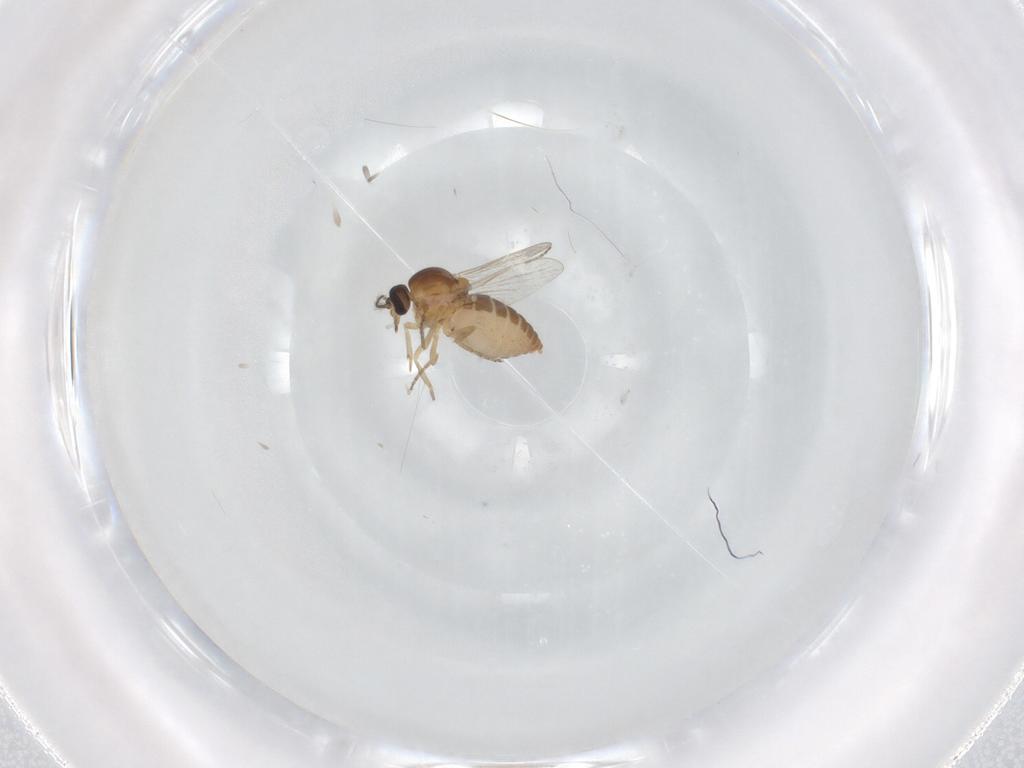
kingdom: Animalia
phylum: Arthropoda
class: Insecta
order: Diptera
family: Ceratopogonidae
